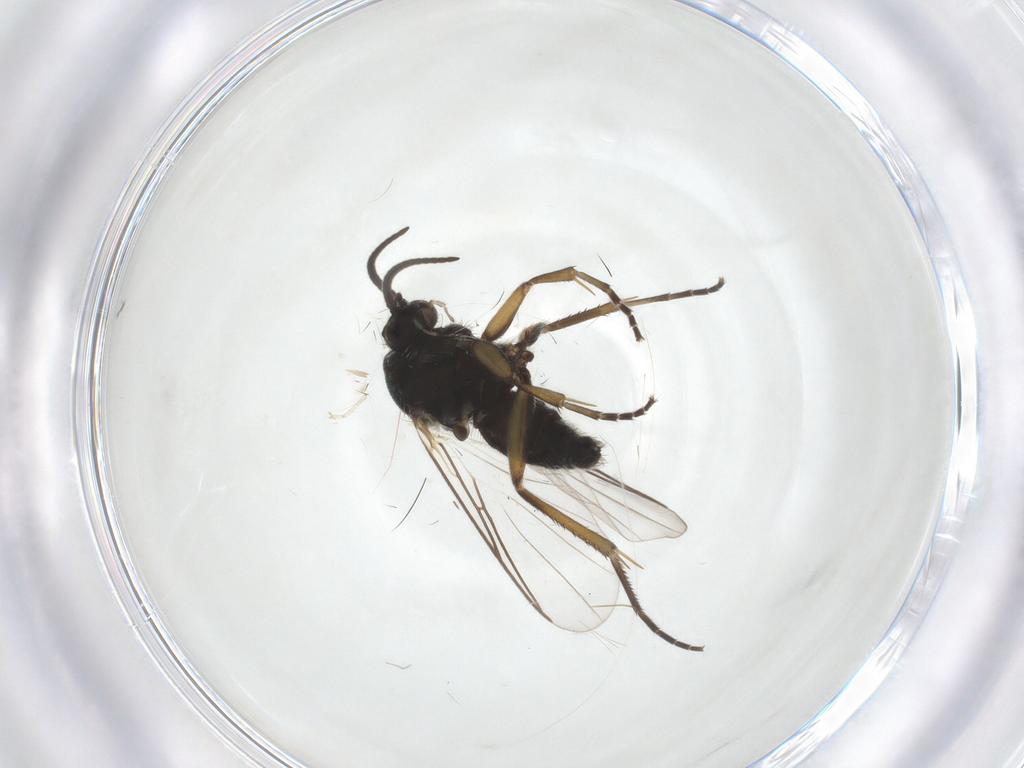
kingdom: Animalia
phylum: Arthropoda
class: Insecta
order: Diptera
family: Mycetophilidae
